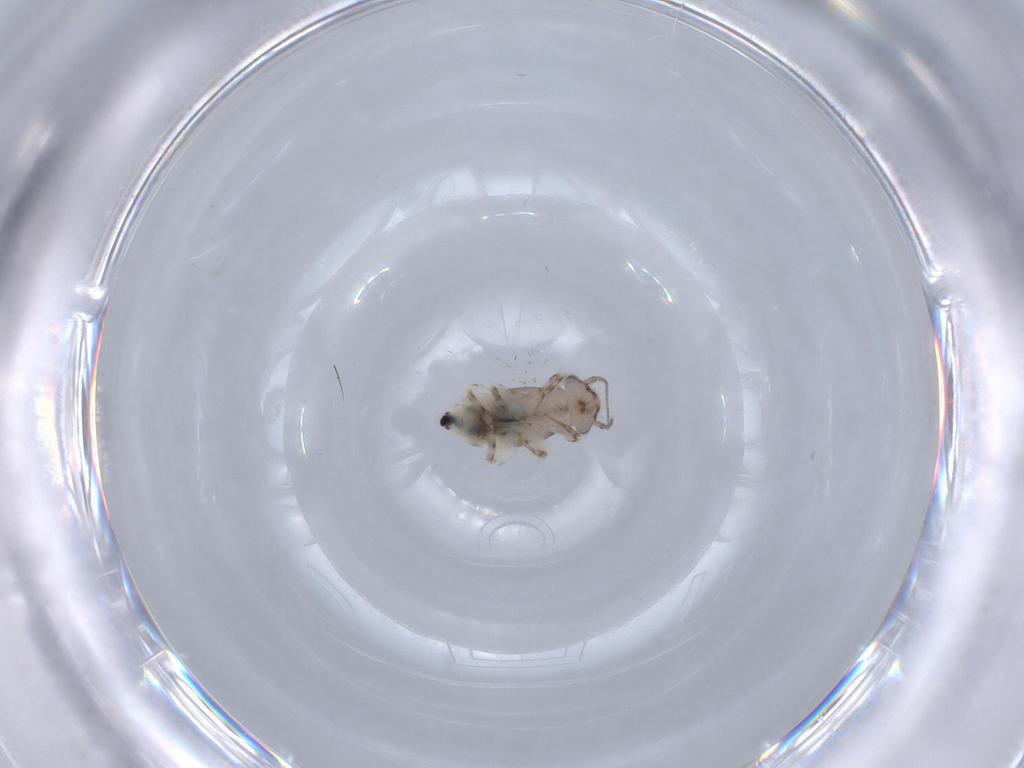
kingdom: Animalia
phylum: Arthropoda
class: Insecta
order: Psocodea
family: Lepidopsocidae
